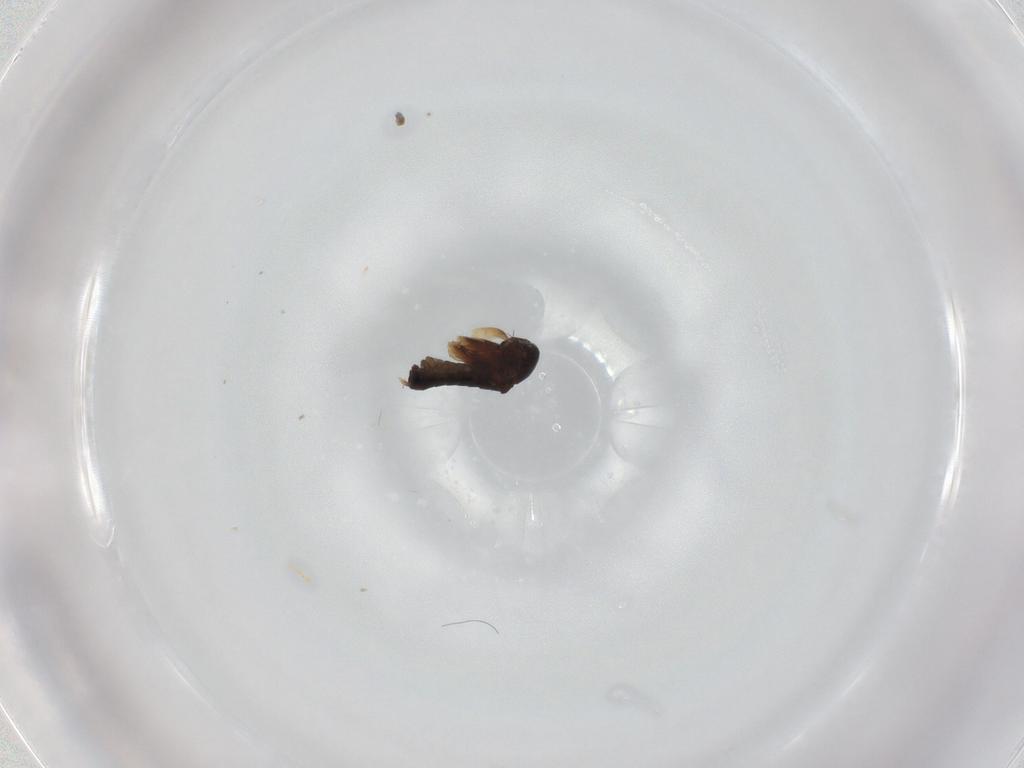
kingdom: Animalia
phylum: Arthropoda
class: Insecta
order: Diptera
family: Phoridae
